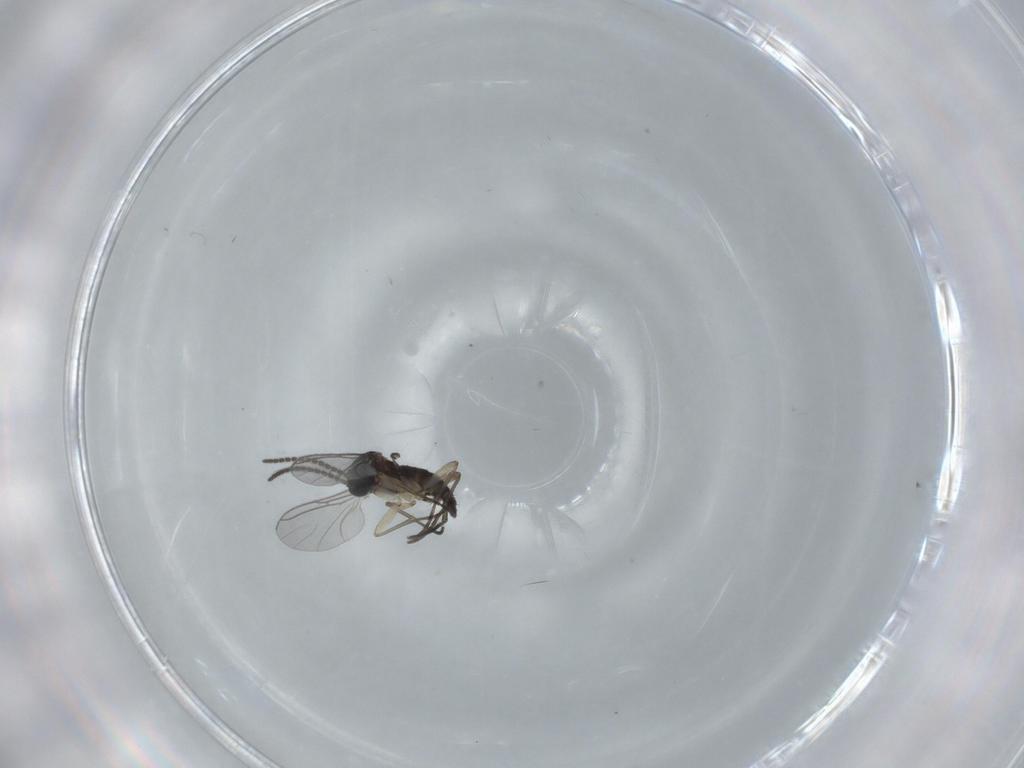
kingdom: Animalia
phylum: Arthropoda
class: Insecta
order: Diptera
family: Sciaridae
